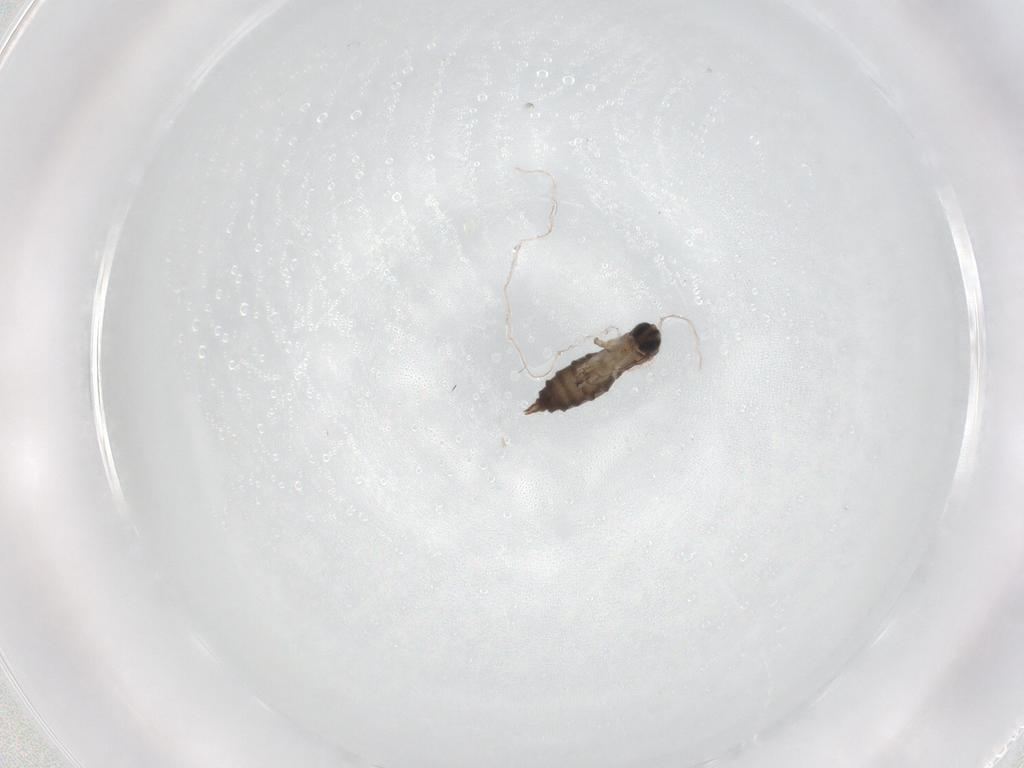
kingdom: Animalia
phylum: Arthropoda
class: Insecta
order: Diptera
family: Sciaridae
